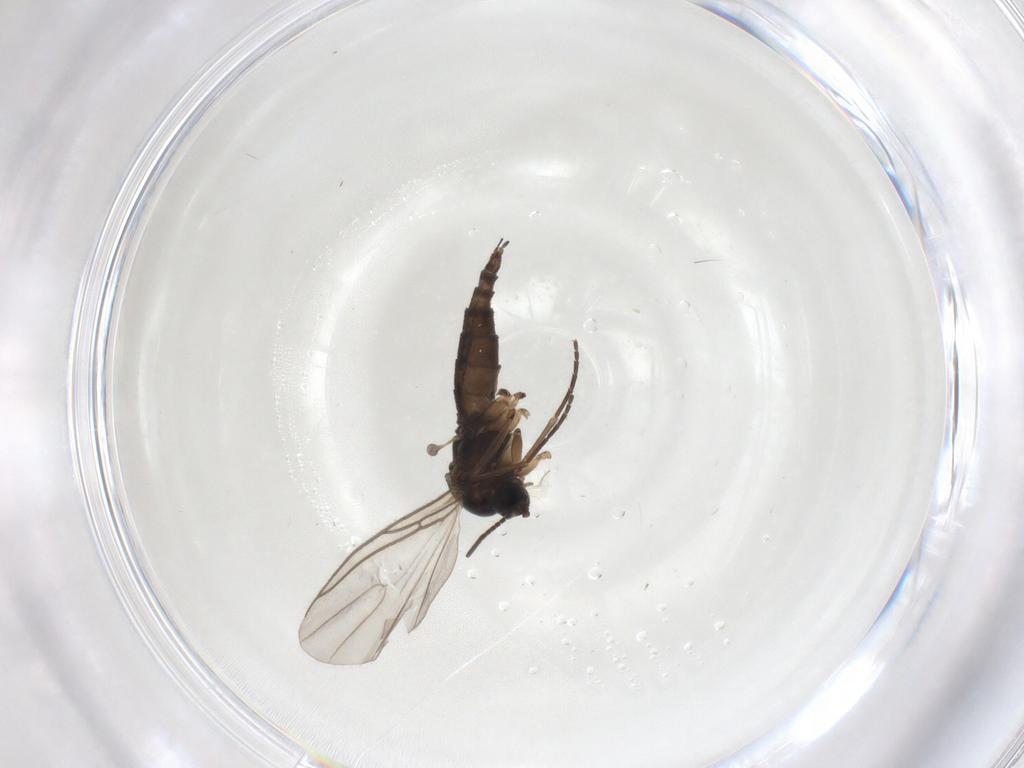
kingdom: Animalia
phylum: Arthropoda
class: Insecta
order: Diptera
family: Sciaridae
